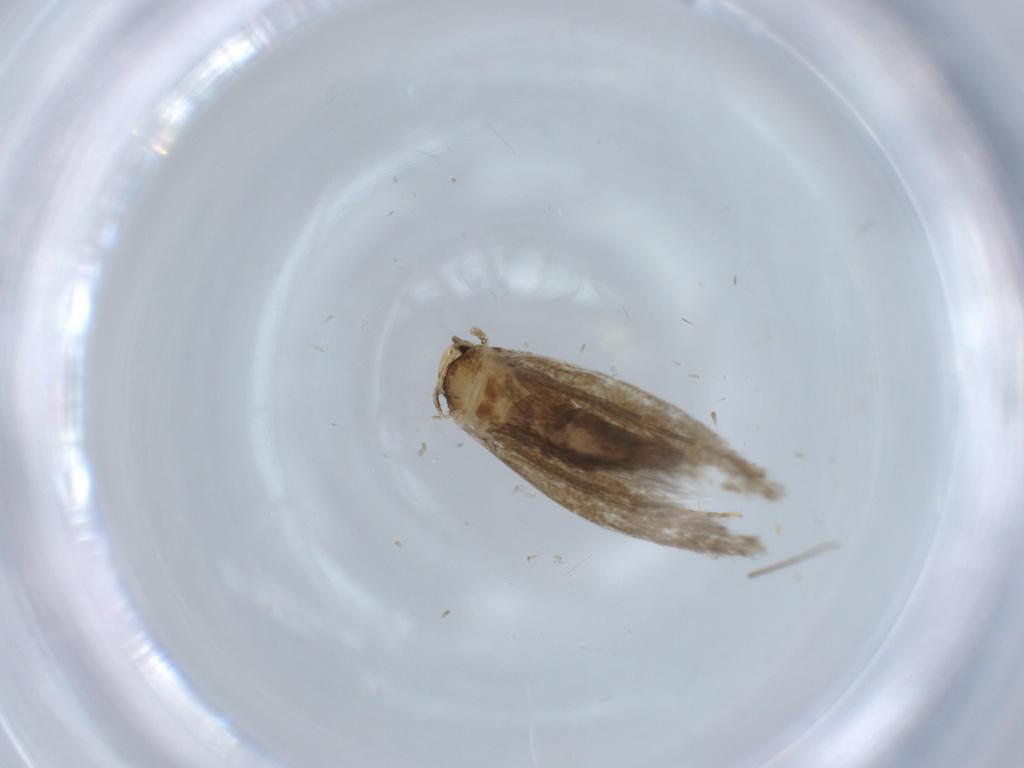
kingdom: Animalia
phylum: Arthropoda
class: Insecta
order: Lepidoptera
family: Tineidae
